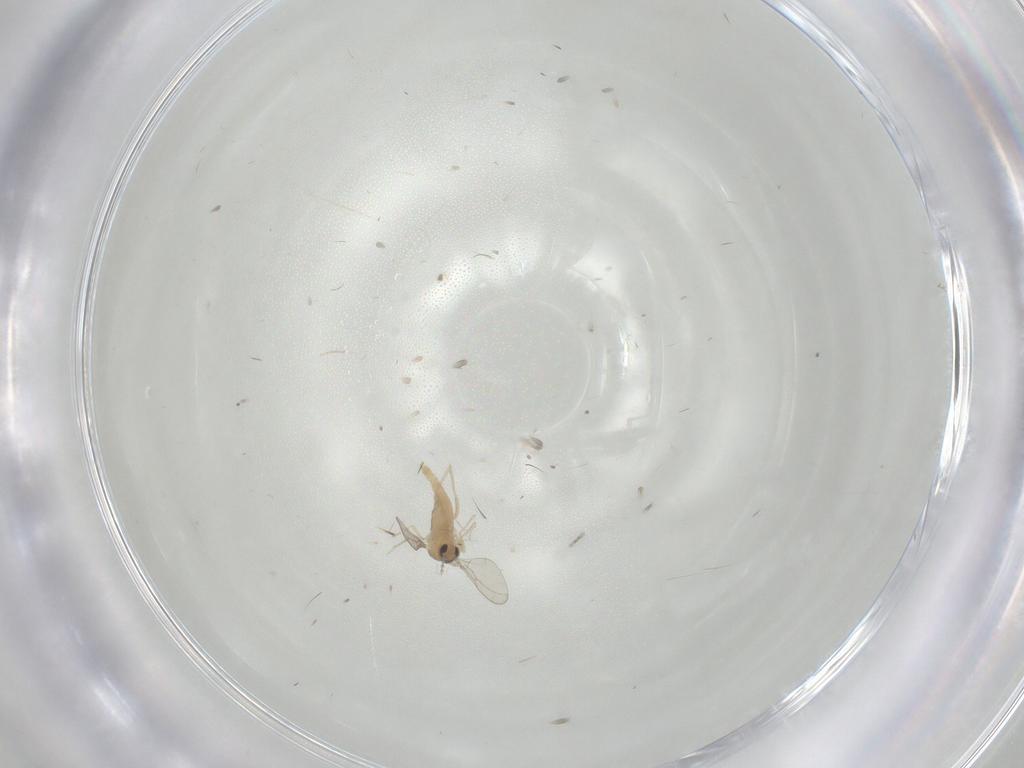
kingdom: Animalia
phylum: Arthropoda
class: Insecta
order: Diptera
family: Cecidomyiidae
